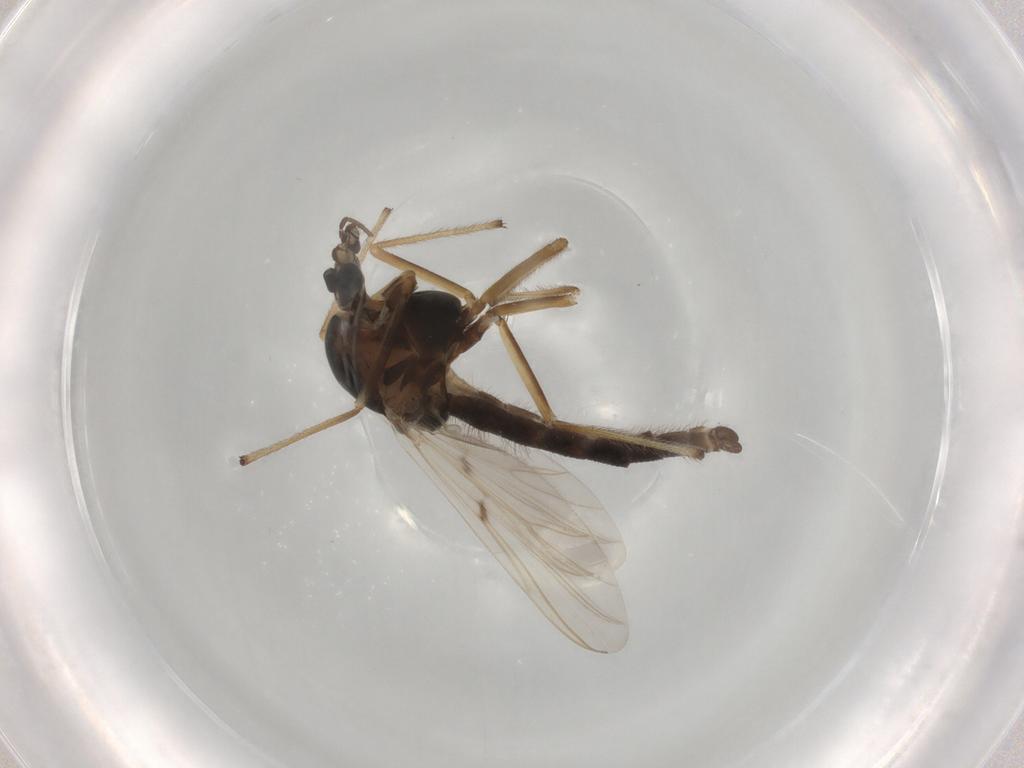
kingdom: Animalia
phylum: Arthropoda
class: Insecta
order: Diptera
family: Chironomidae
